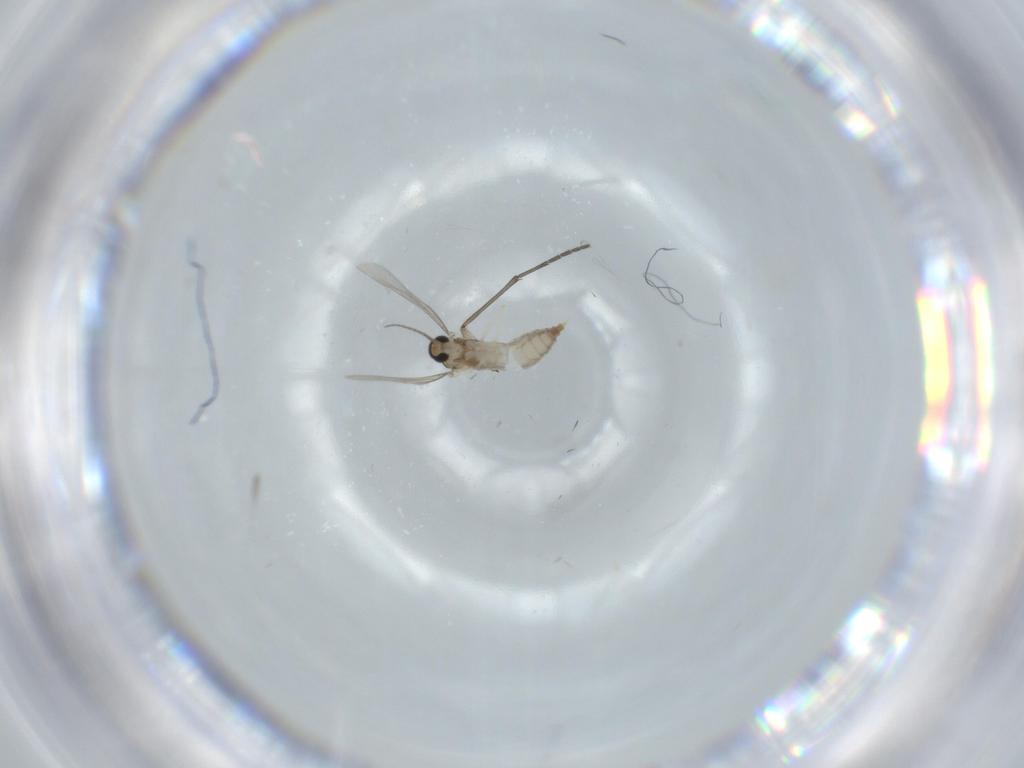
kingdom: Animalia
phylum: Arthropoda
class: Insecta
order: Diptera
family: Sciaridae
